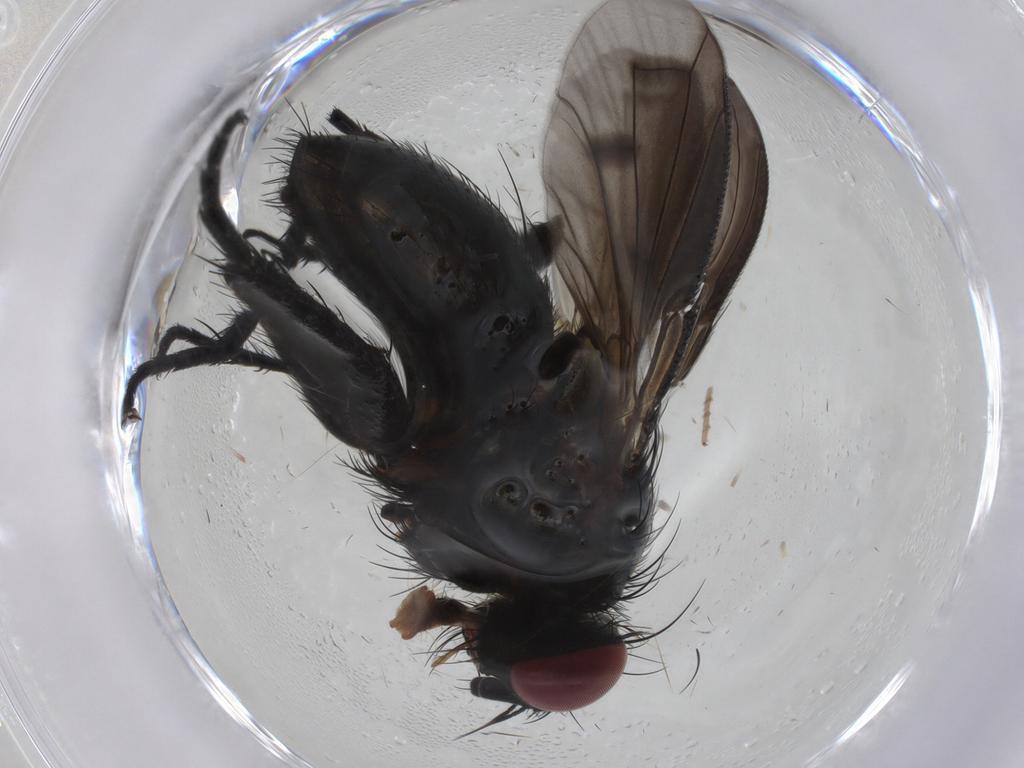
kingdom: Animalia
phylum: Arthropoda
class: Insecta
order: Diptera
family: Tachinidae
